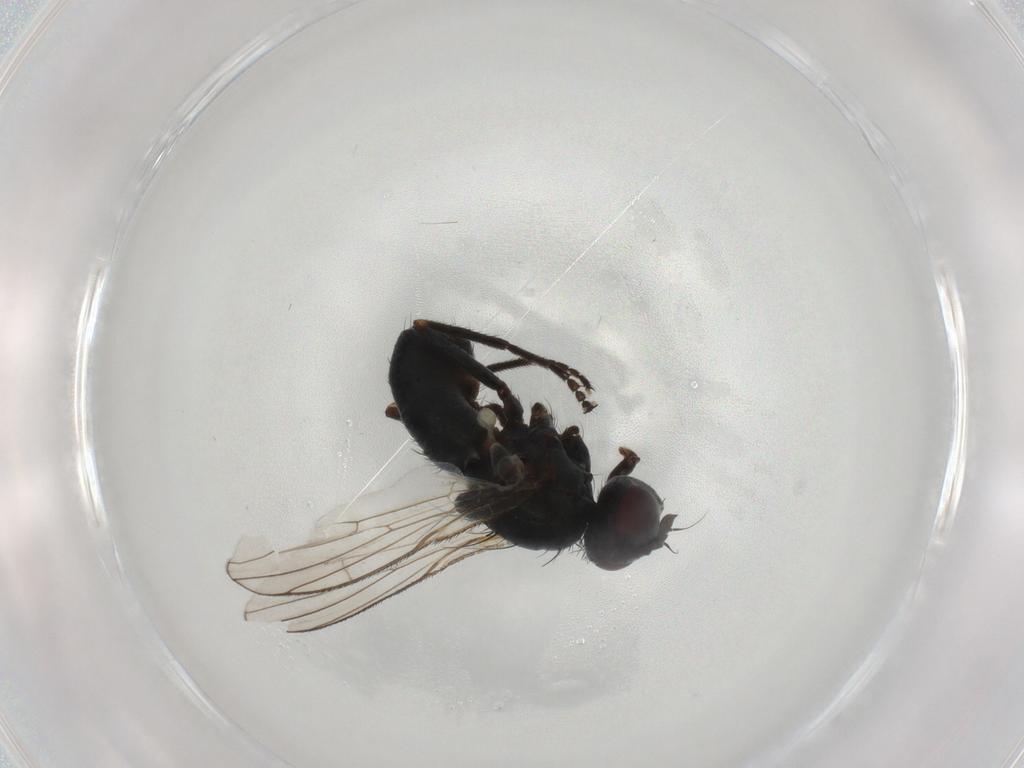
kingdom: Animalia
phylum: Arthropoda
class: Insecta
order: Diptera
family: Muscidae
